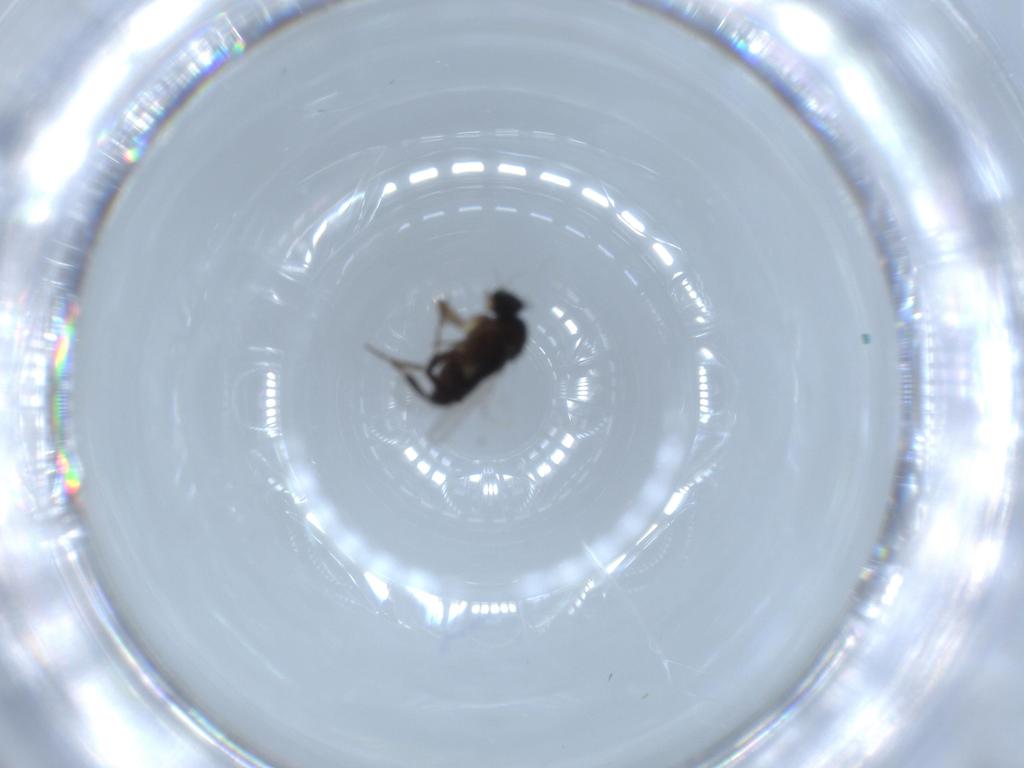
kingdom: Animalia
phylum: Arthropoda
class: Insecta
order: Diptera
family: Phoridae
